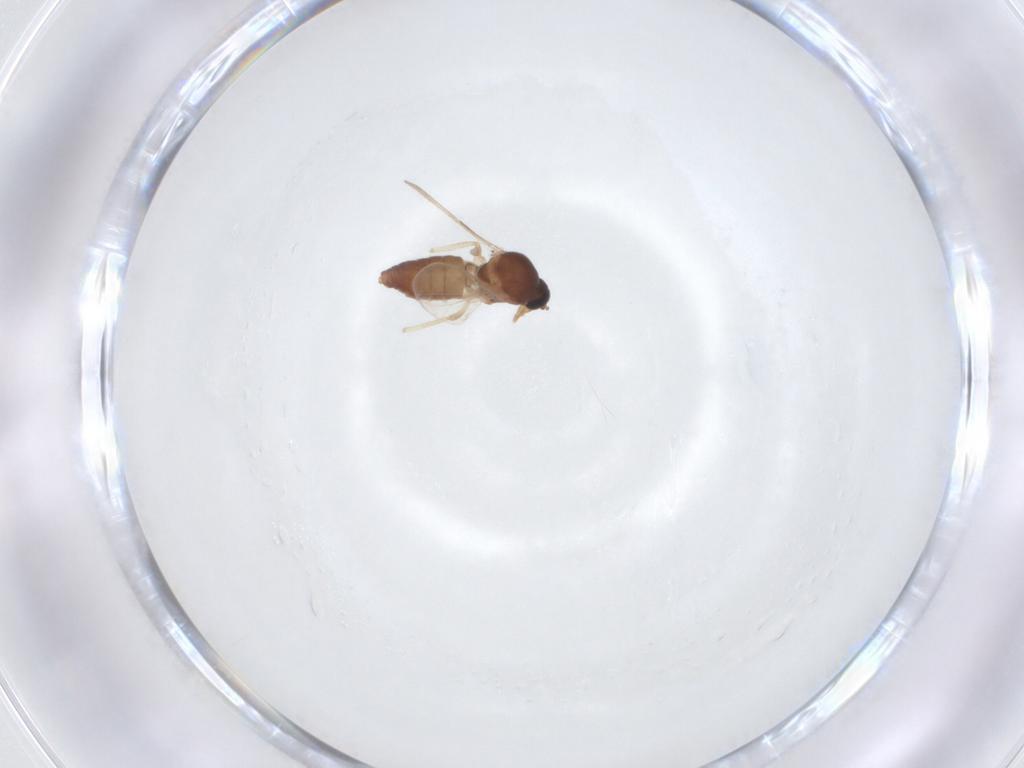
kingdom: Animalia
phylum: Arthropoda
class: Insecta
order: Diptera
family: Ceratopogonidae
